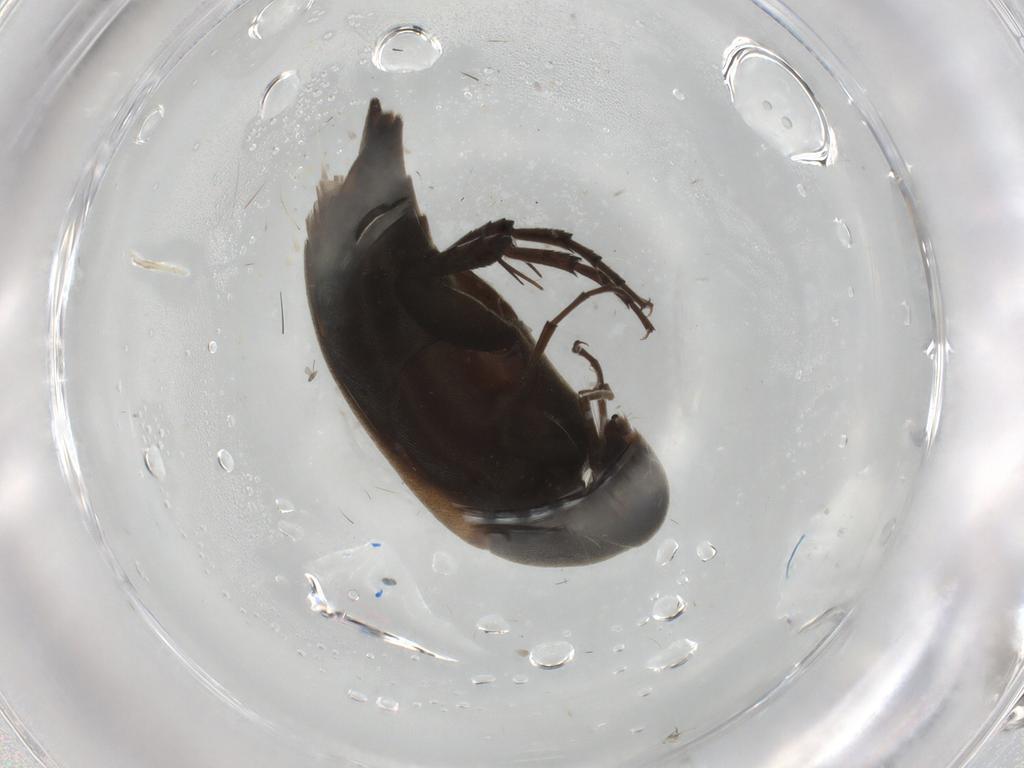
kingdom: Animalia
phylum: Arthropoda
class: Insecta
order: Coleoptera
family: Mordellidae
